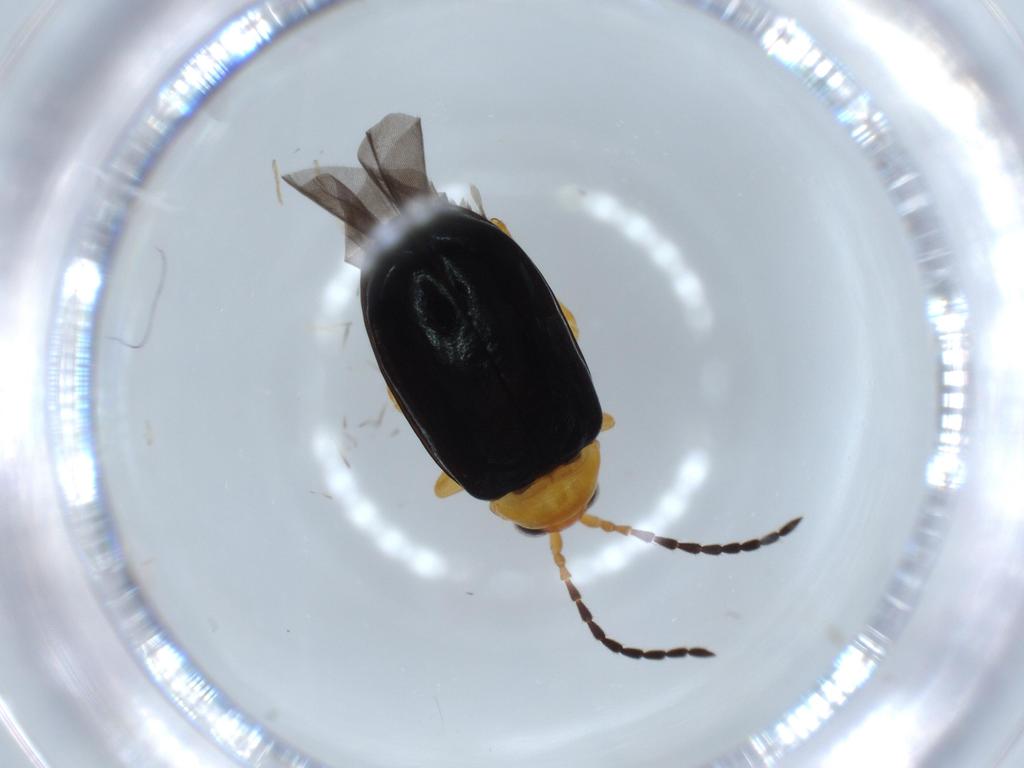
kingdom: Animalia
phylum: Arthropoda
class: Insecta
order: Coleoptera
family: Chrysomelidae
